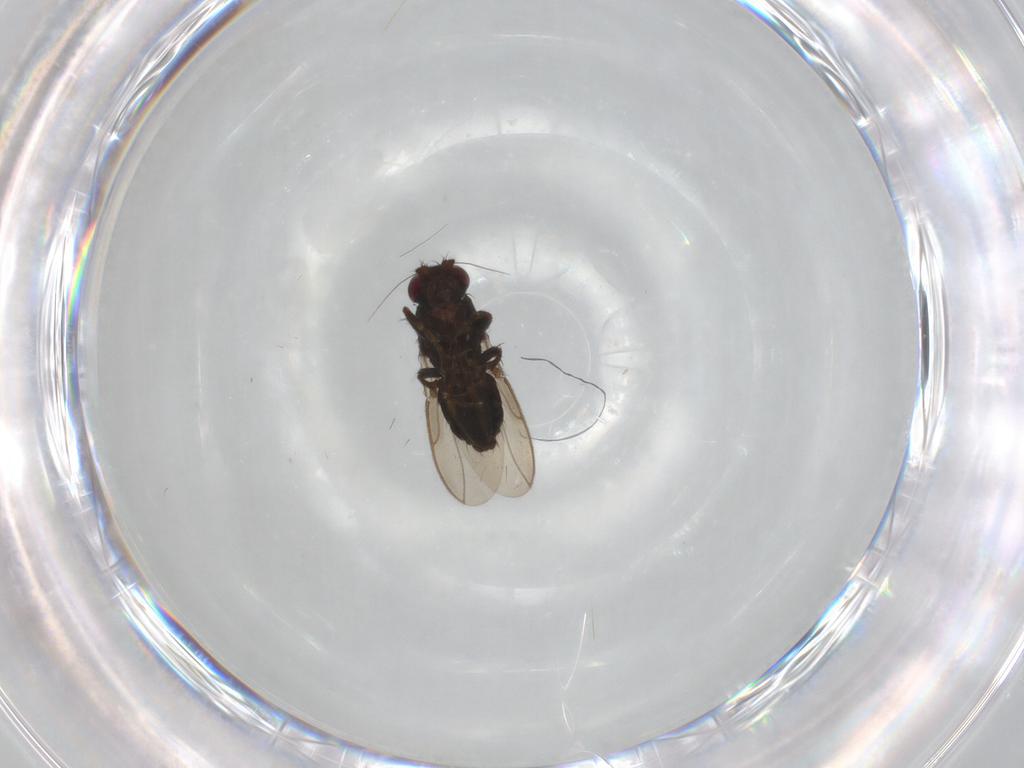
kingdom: Animalia
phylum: Arthropoda
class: Insecta
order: Diptera
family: Sphaeroceridae
